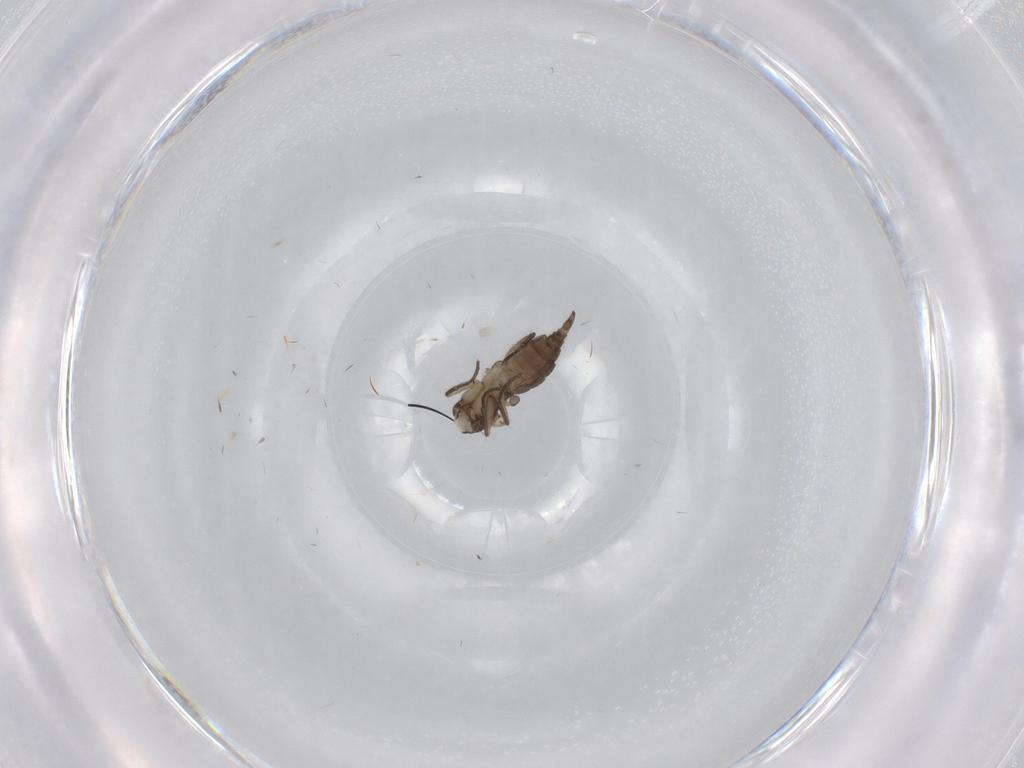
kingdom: Animalia
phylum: Arthropoda
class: Insecta
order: Diptera
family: Sciaridae
